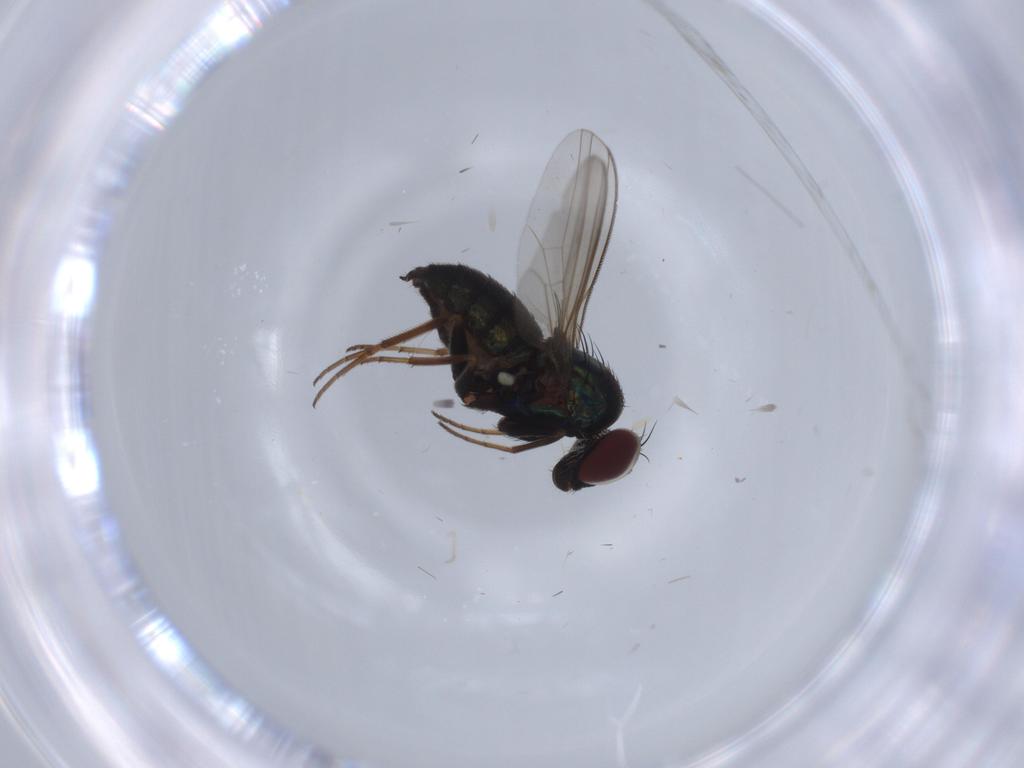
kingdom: Animalia
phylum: Arthropoda
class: Insecta
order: Diptera
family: Dolichopodidae
